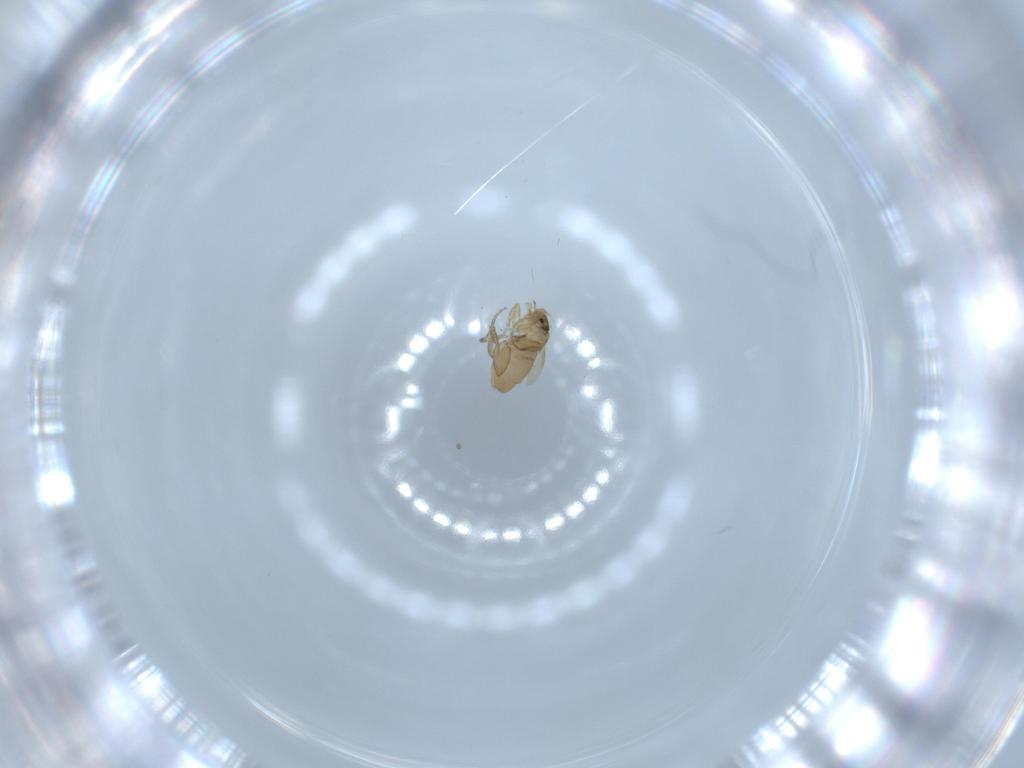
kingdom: Animalia
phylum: Arthropoda
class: Insecta
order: Diptera
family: Phoridae
